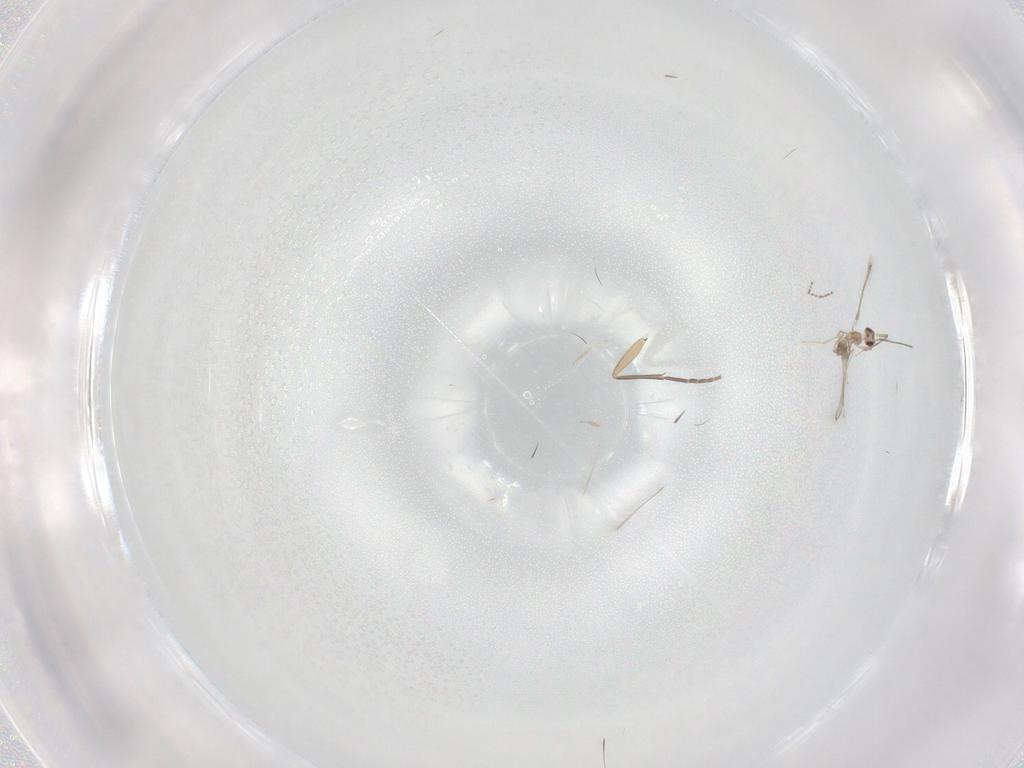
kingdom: Animalia
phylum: Arthropoda
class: Insecta
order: Diptera
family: Sciaridae
